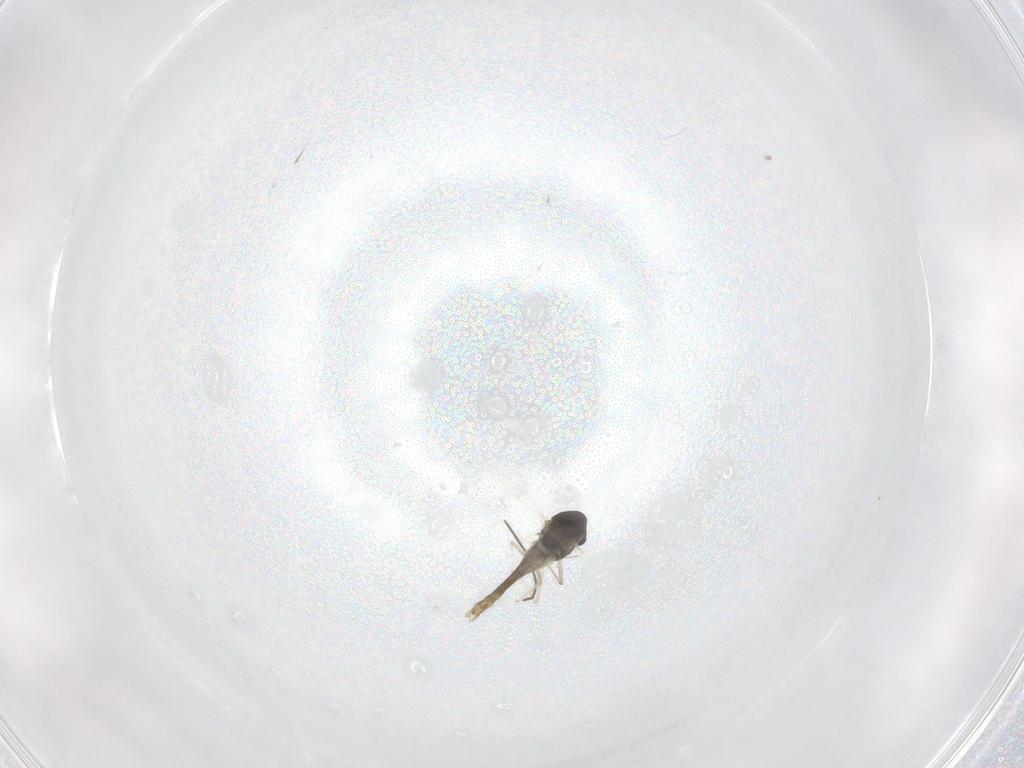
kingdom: Animalia
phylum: Arthropoda
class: Insecta
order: Diptera
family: Chironomidae
